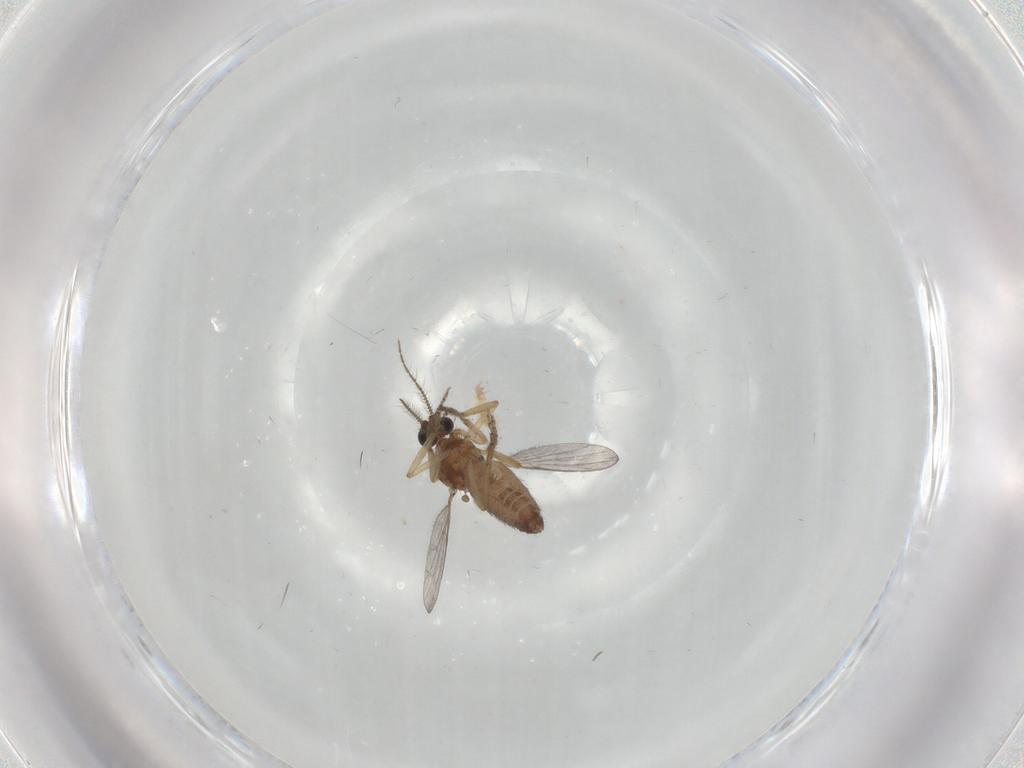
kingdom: Animalia
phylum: Arthropoda
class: Insecta
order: Diptera
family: Ceratopogonidae
